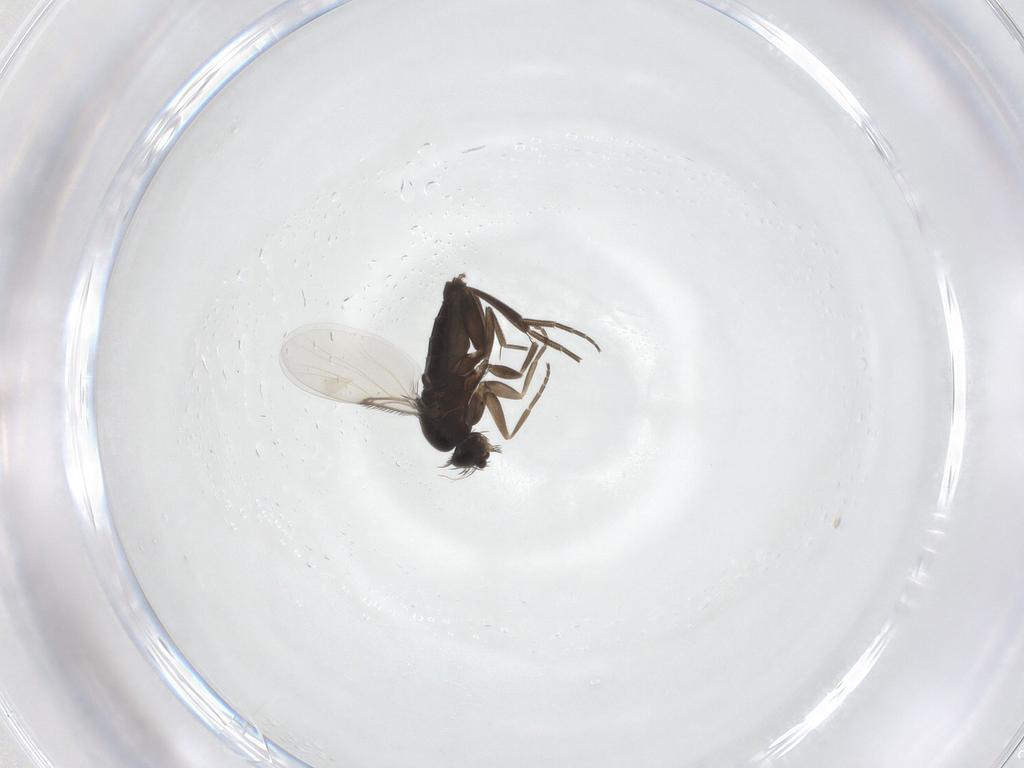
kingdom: Animalia
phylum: Arthropoda
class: Insecta
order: Diptera
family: Phoridae
